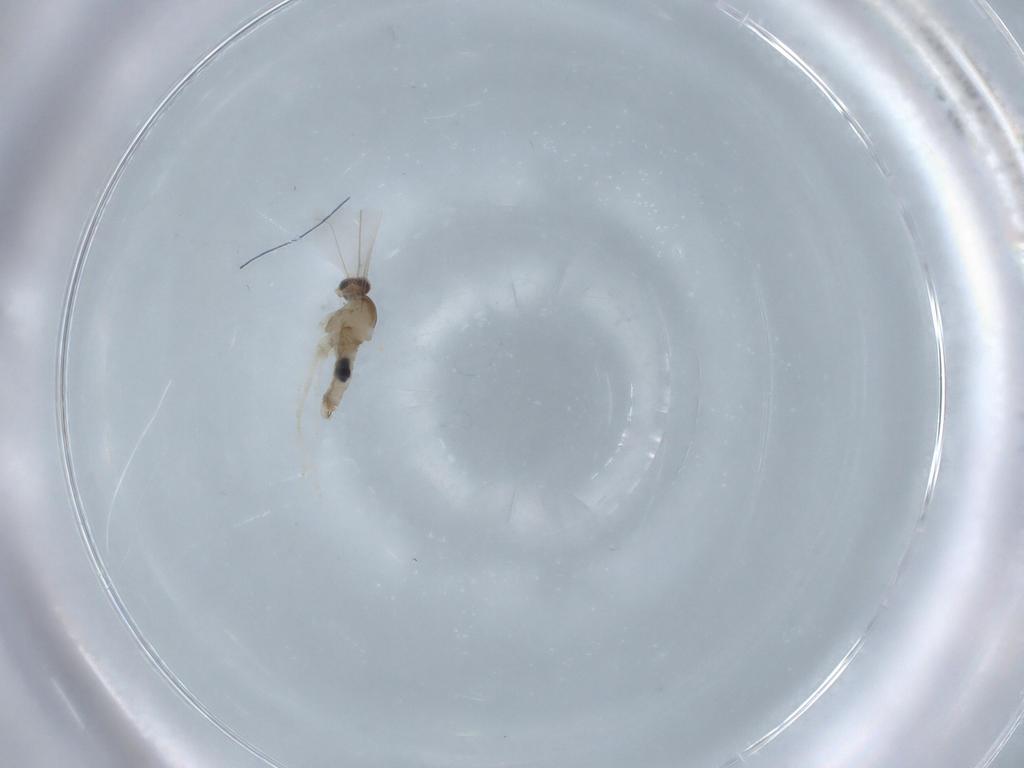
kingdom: Animalia
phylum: Arthropoda
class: Insecta
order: Diptera
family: Cecidomyiidae
